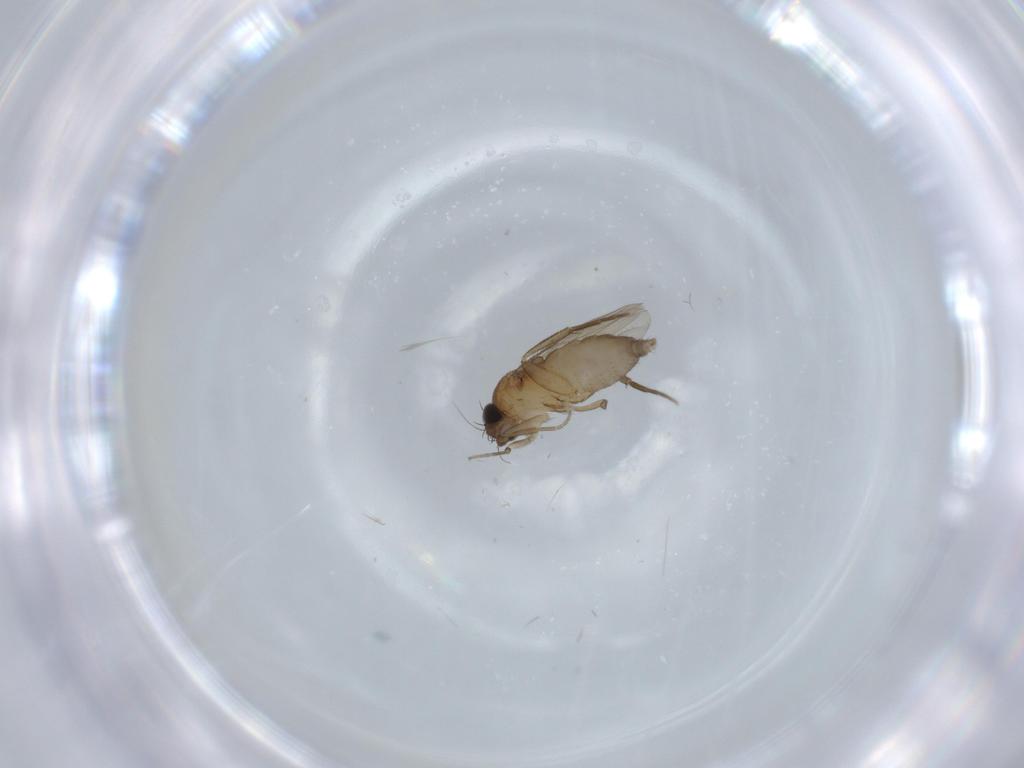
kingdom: Animalia
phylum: Arthropoda
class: Insecta
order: Diptera
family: Phoridae
